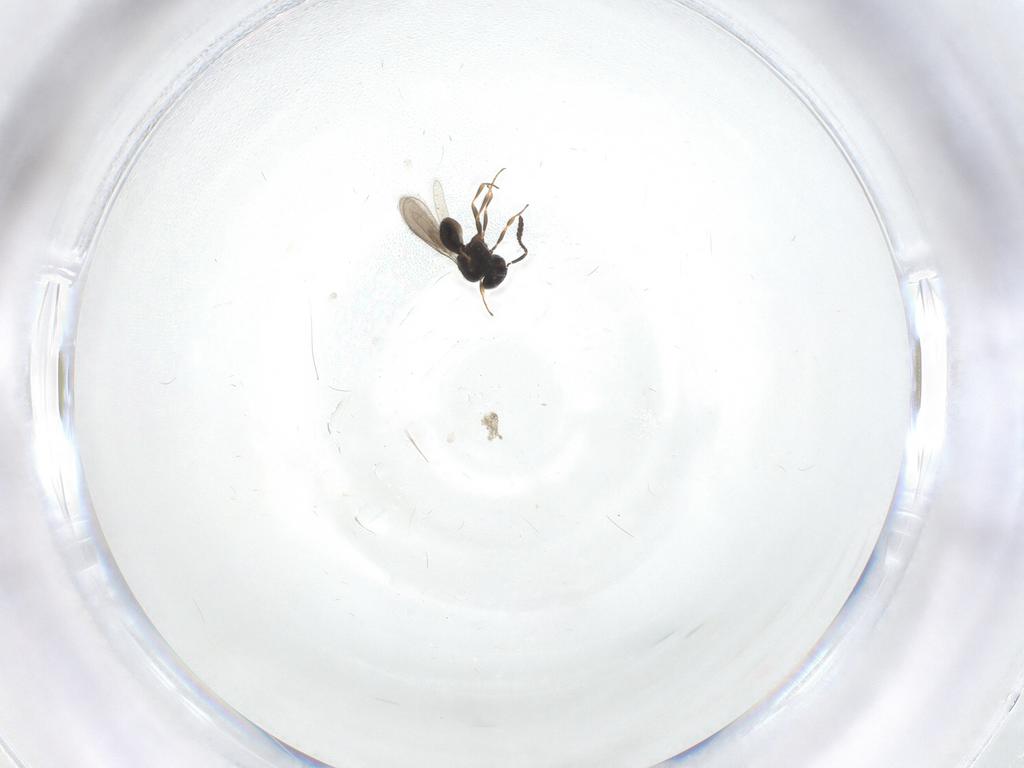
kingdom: Animalia
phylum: Arthropoda
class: Insecta
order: Hymenoptera
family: Scelionidae
